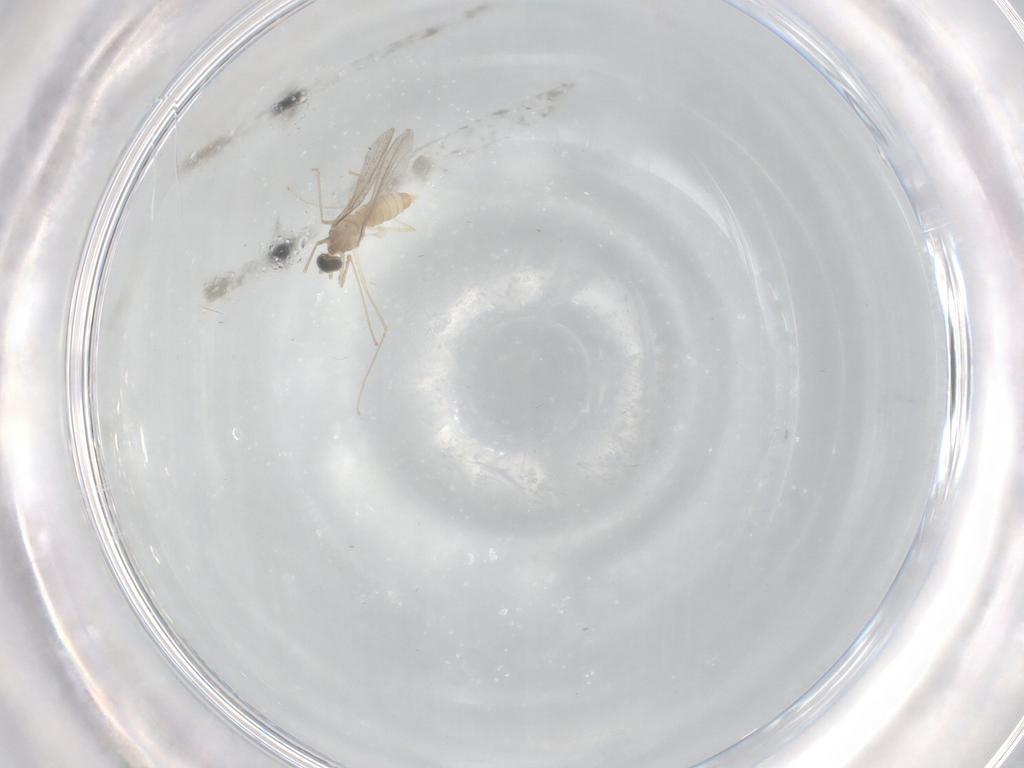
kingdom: Animalia
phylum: Arthropoda
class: Insecta
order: Diptera
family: Cecidomyiidae
